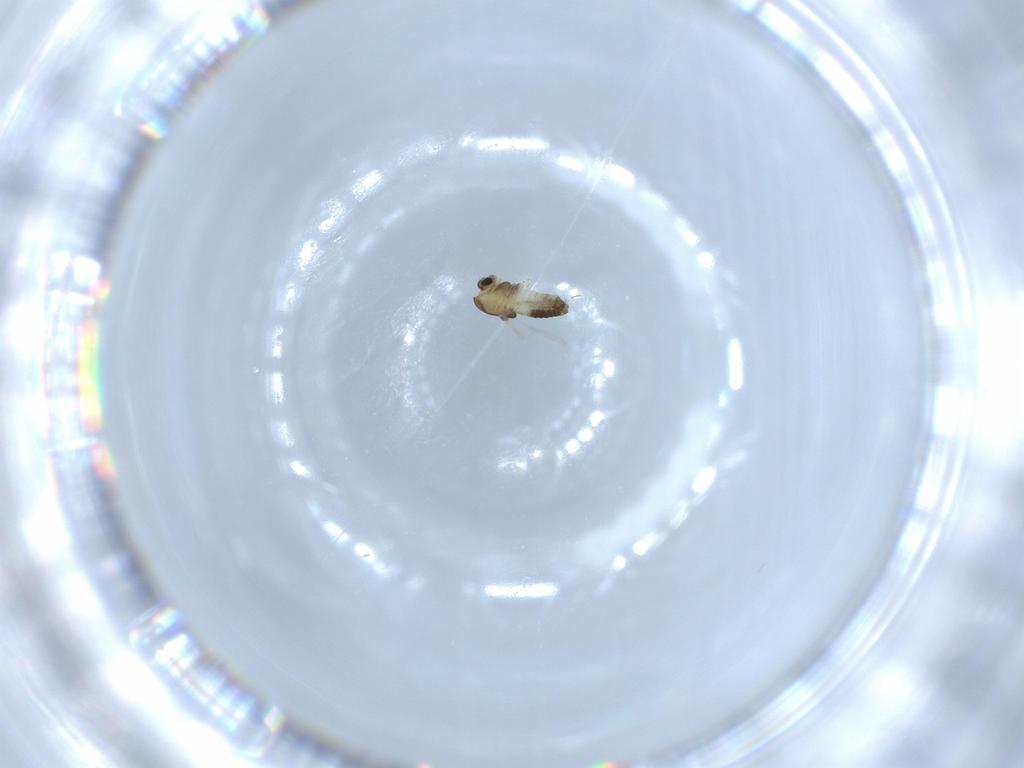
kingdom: Animalia
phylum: Arthropoda
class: Insecta
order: Diptera
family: Chironomidae
